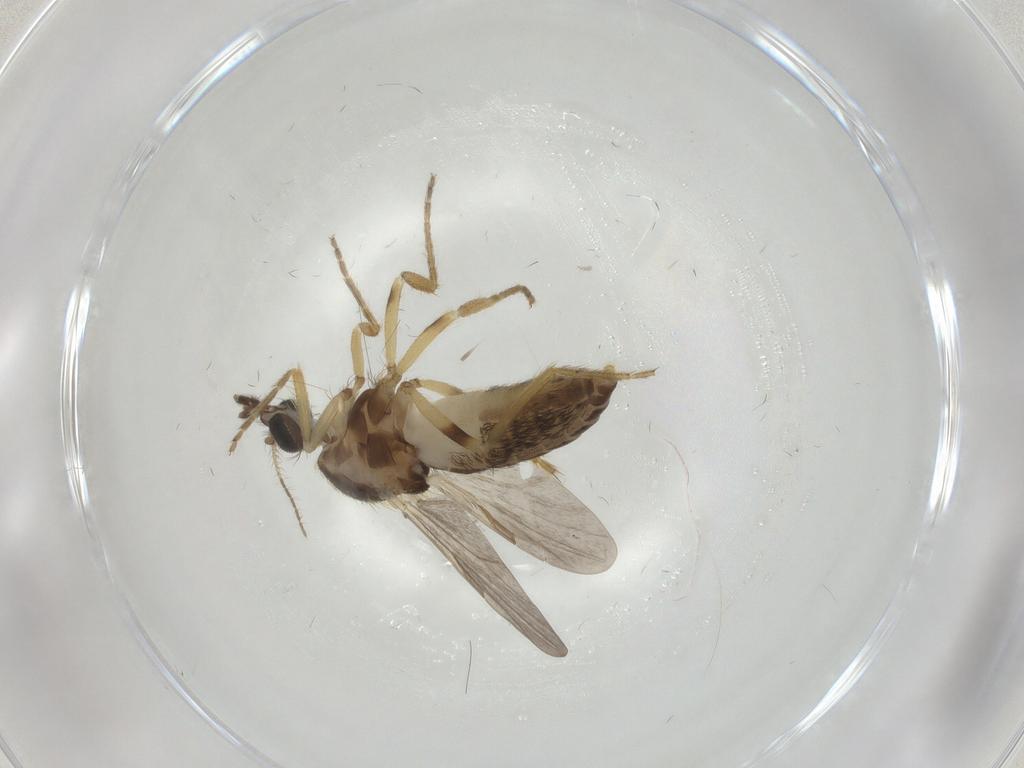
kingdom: Animalia
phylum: Arthropoda
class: Insecta
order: Diptera
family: Ceratopogonidae
